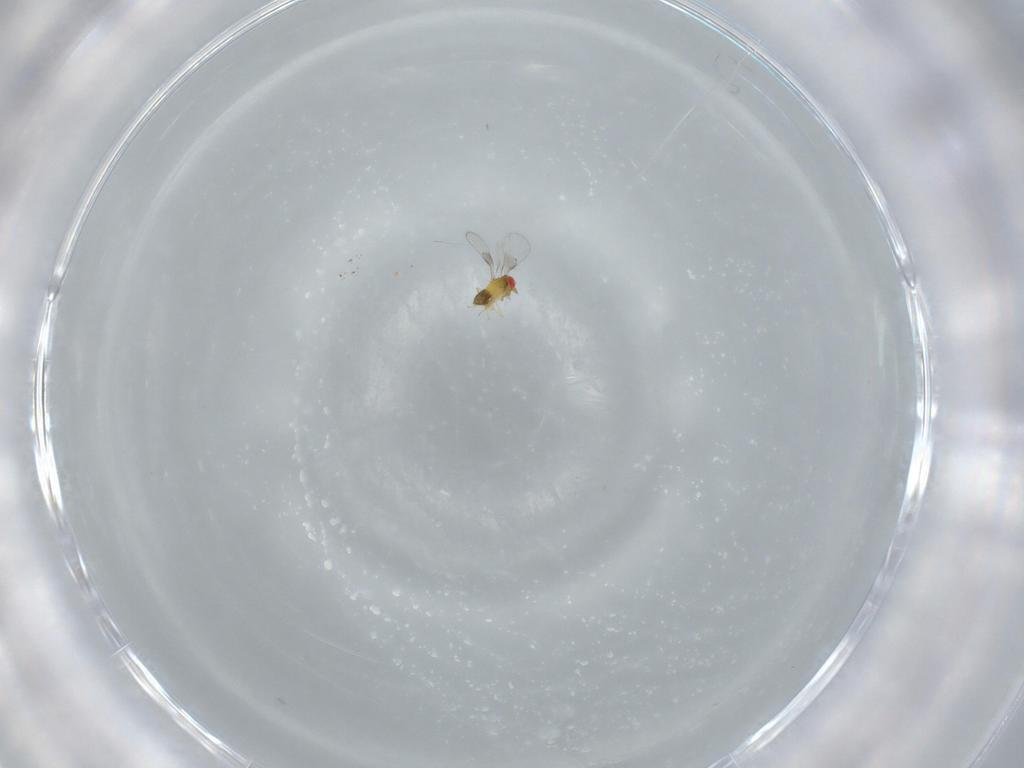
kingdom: Animalia
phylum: Arthropoda
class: Insecta
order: Hymenoptera
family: Trichogrammatidae
